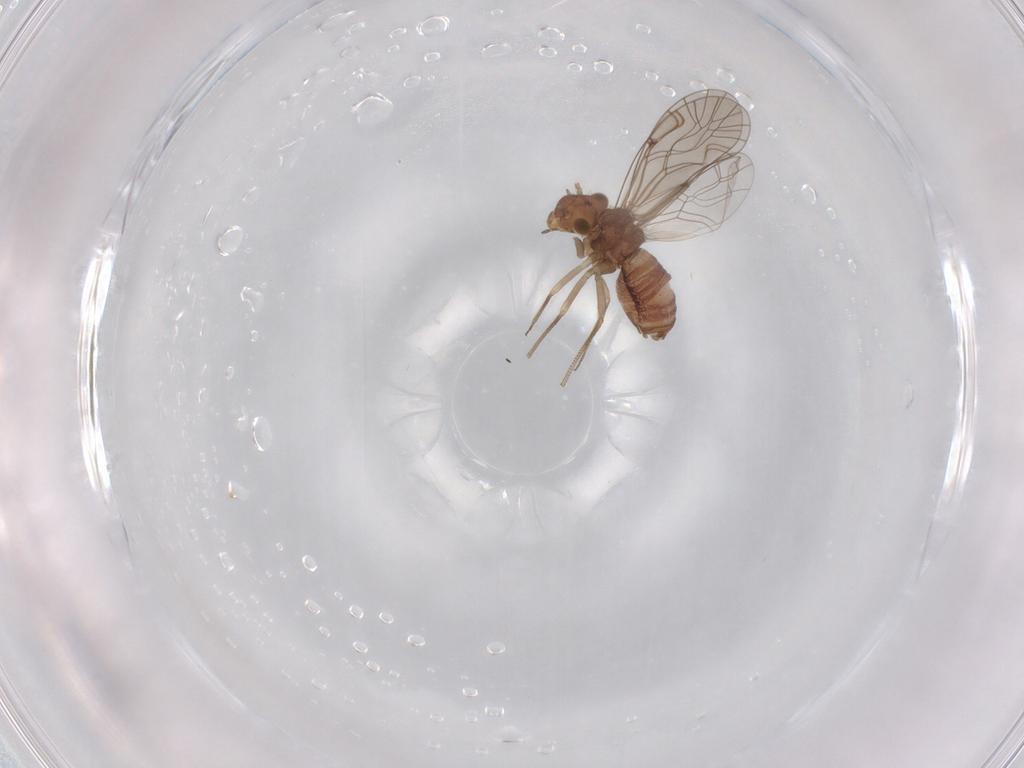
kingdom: Animalia
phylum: Arthropoda
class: Insecta
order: Psocodea
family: Lachesillidae
